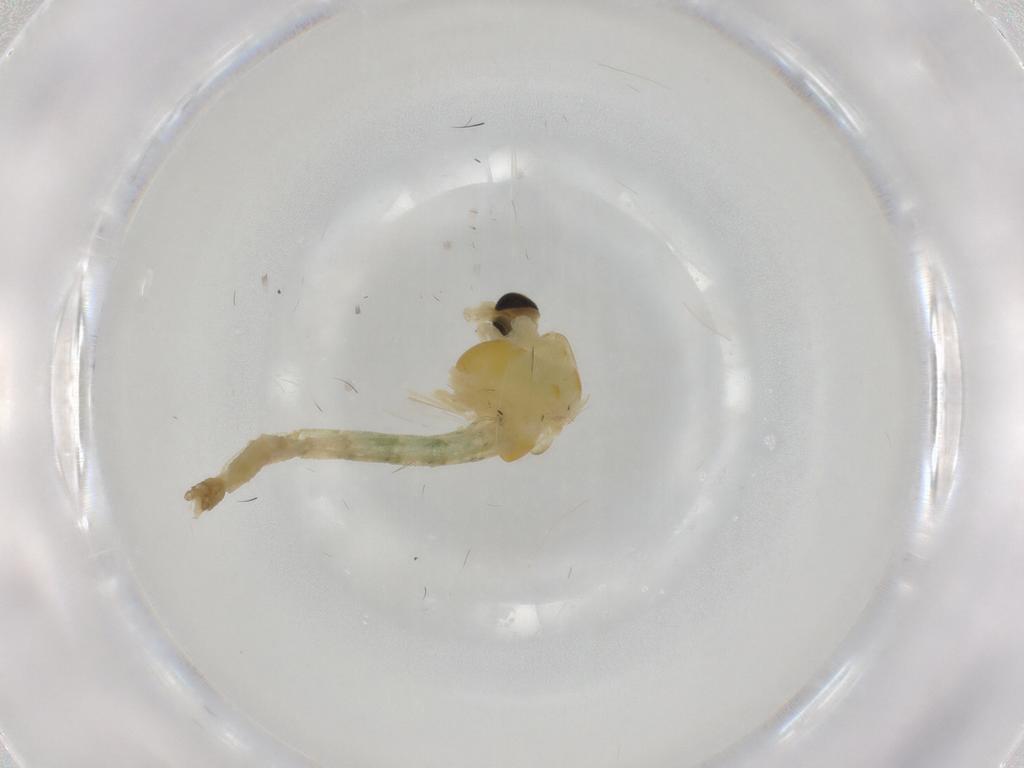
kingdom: Animalia
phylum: Arthropoda
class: Insecta
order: Diptera
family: Chironomidae
